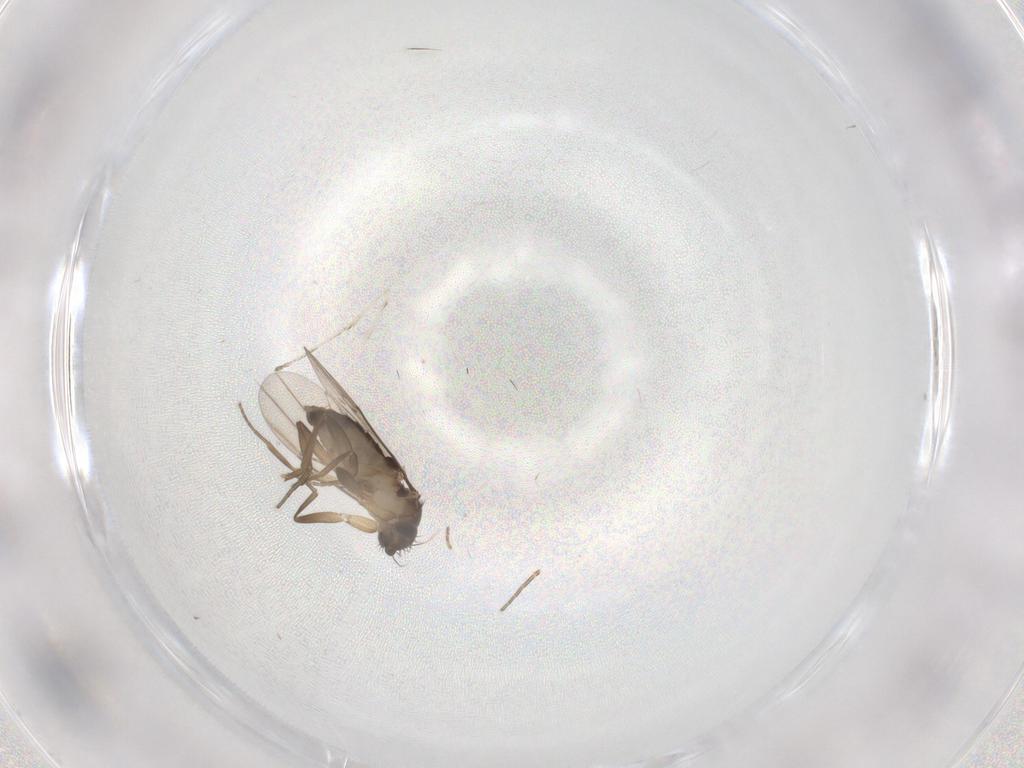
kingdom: Animalia
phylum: Arthropoda
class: Insecta
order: Diptera
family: Phoridae
